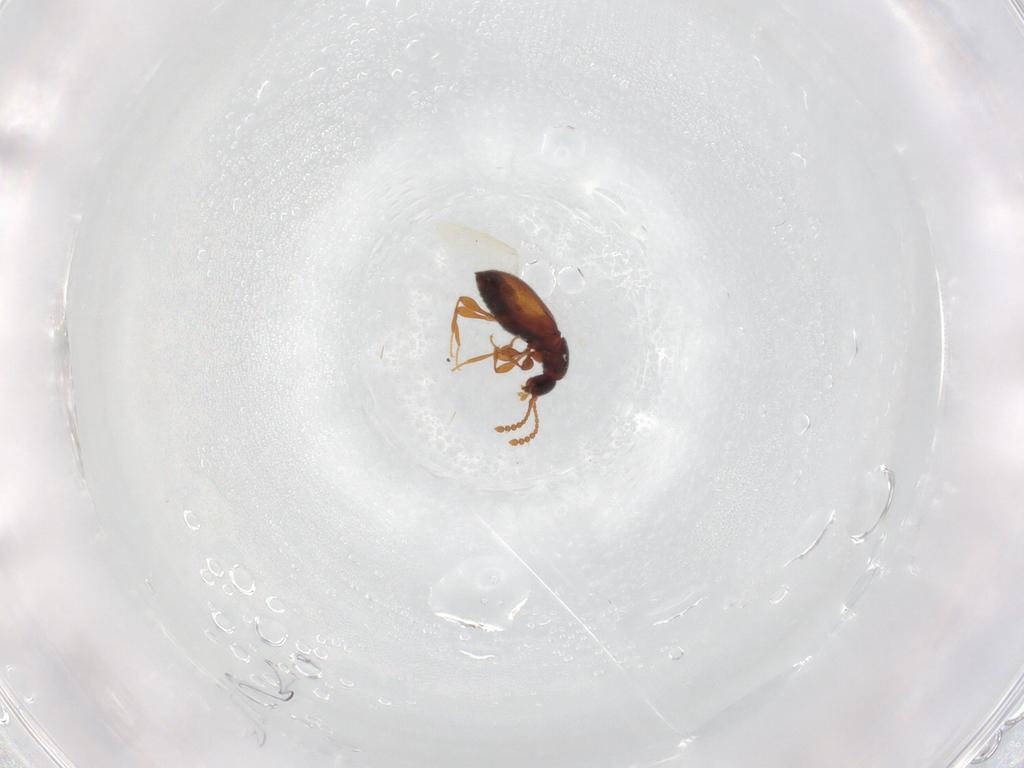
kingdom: Animalia
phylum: Arthropoda
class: Insecta
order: Coleoptera
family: Staphylinidae
